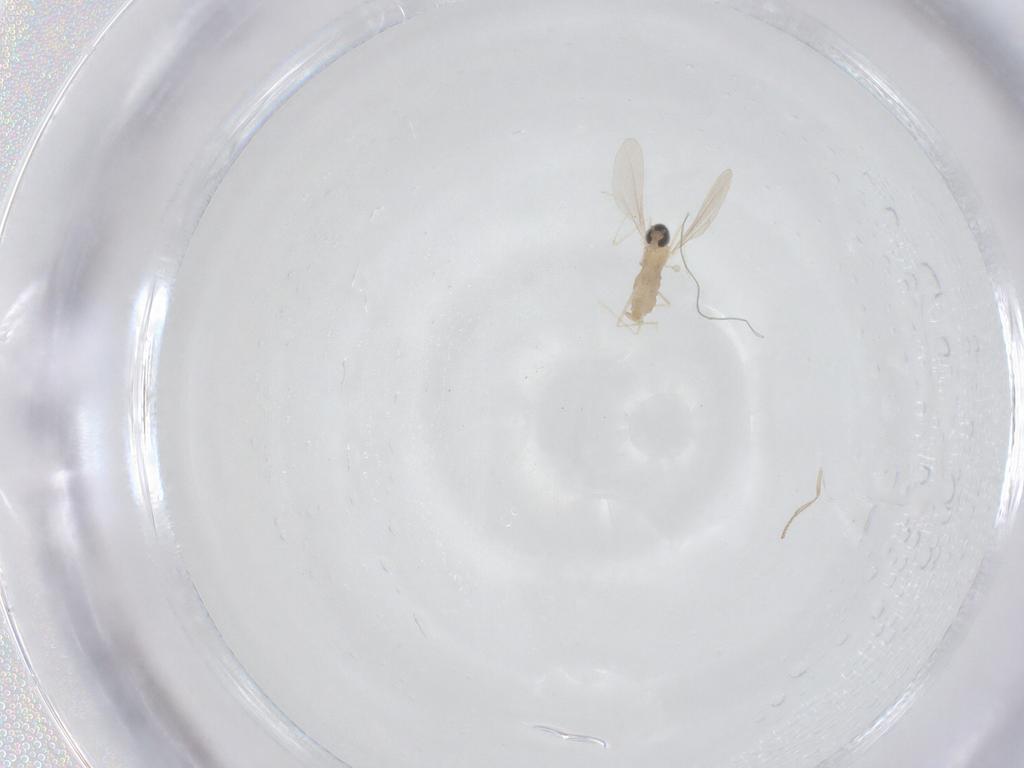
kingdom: Animalia
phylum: Arthropoda
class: Insecta
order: Diptera
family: Cecidomyiidae
